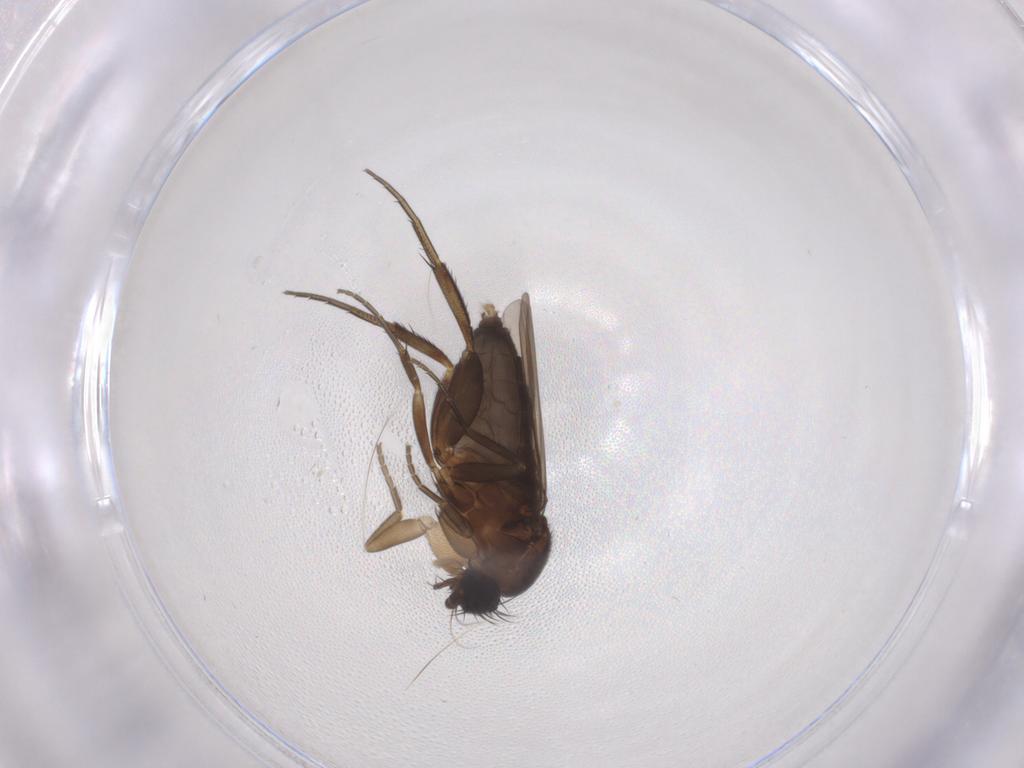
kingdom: Animalia
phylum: Arthropoda
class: Insecta
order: Diptera
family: Phoridae
